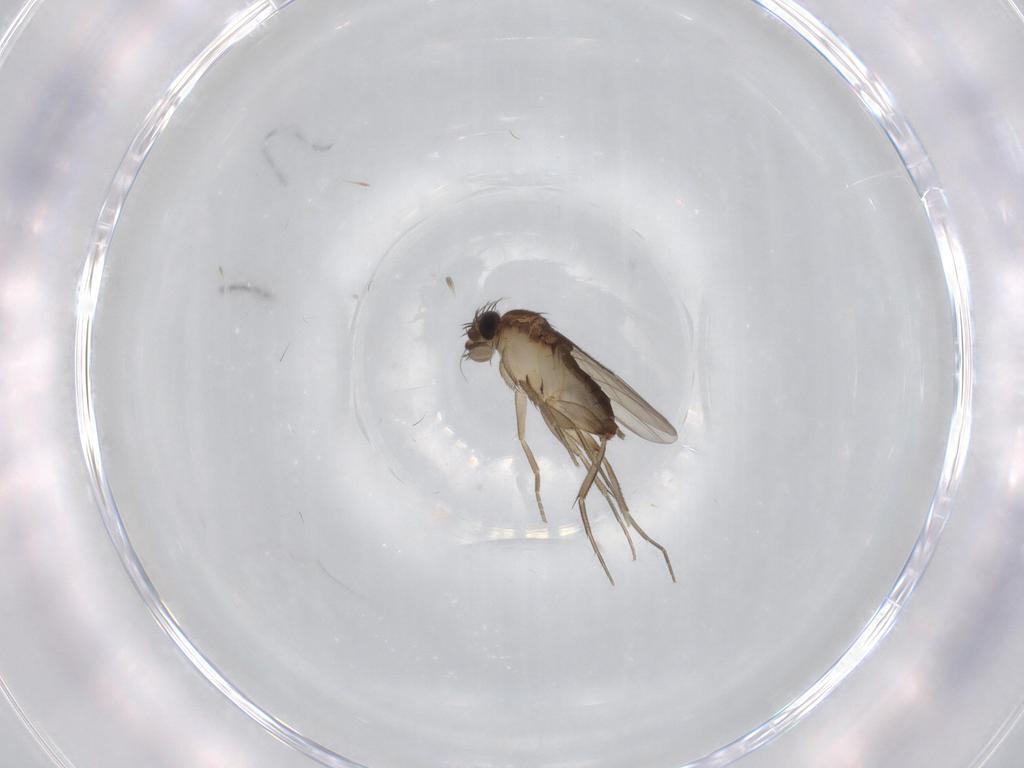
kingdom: Animalia
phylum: Arthropoda
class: Insecta
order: Diptera
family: Phoridae
